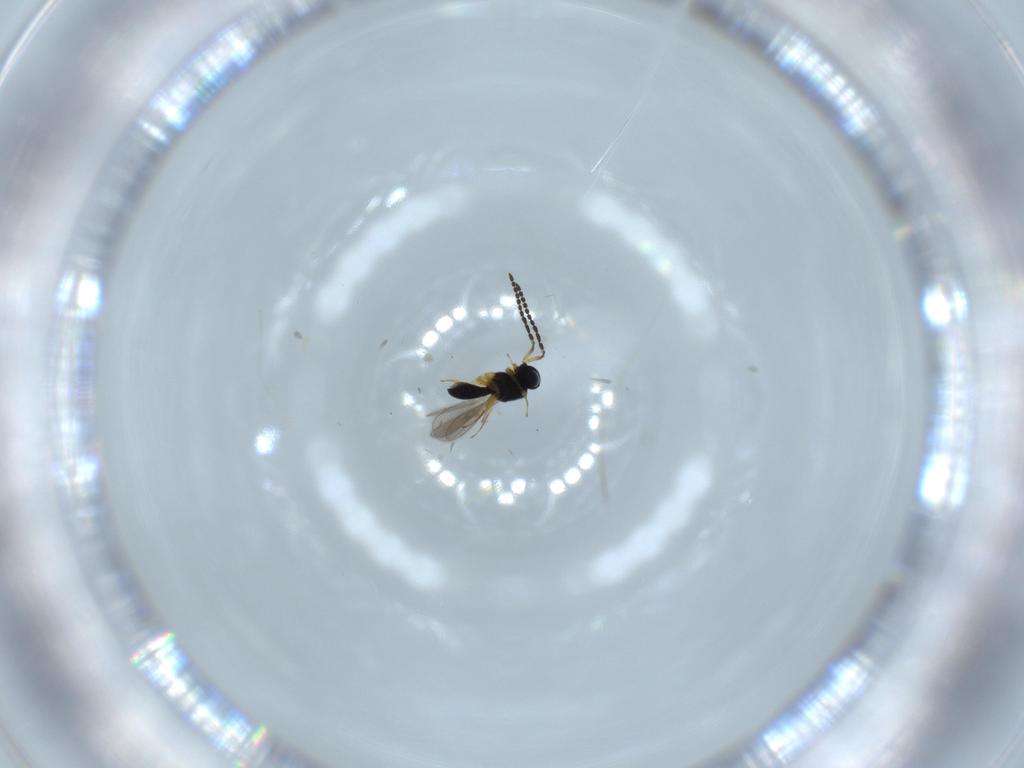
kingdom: Animalia
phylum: Arthropoda
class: Insecta
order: Hymenoptera
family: Scelionidae
